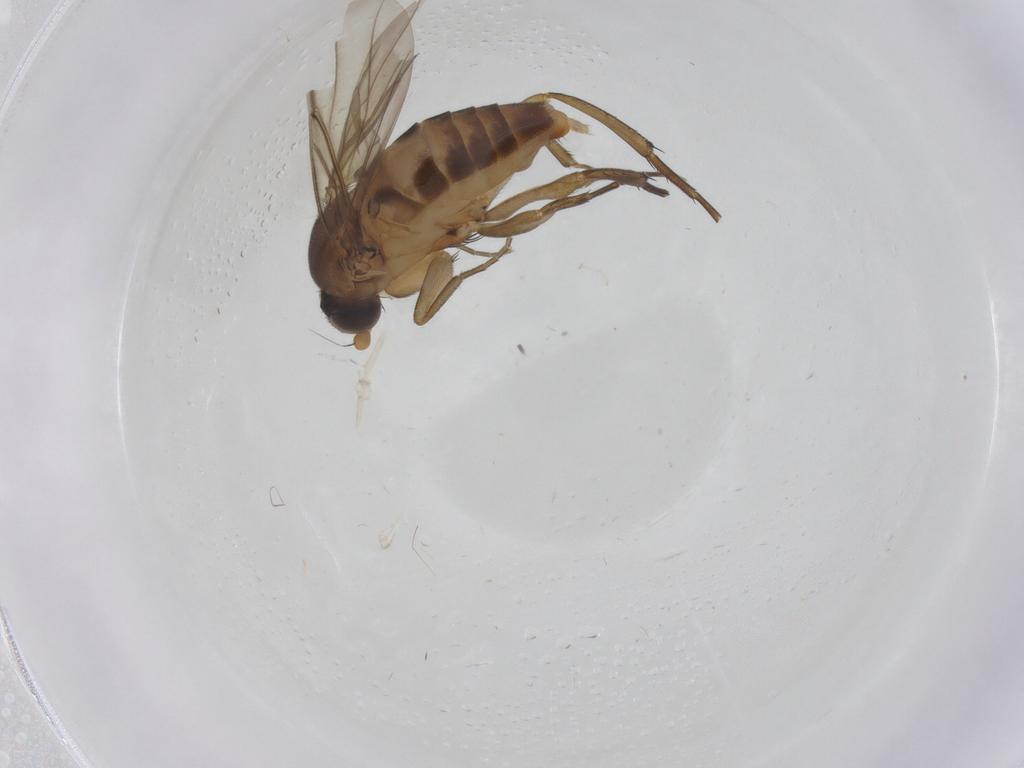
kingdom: Animalia
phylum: Arthropoda
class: Insecta
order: Diptera
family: Phoridae
